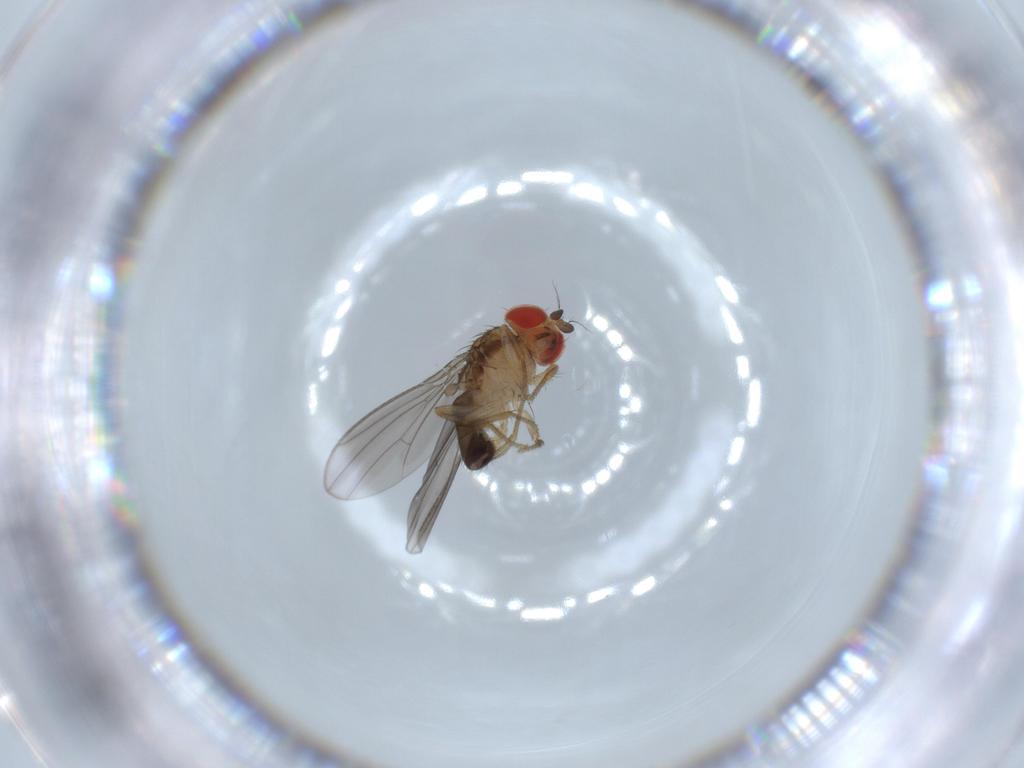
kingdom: Animalia
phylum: Arthropoda
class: Insecta
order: Diptera
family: Drosophilidae
